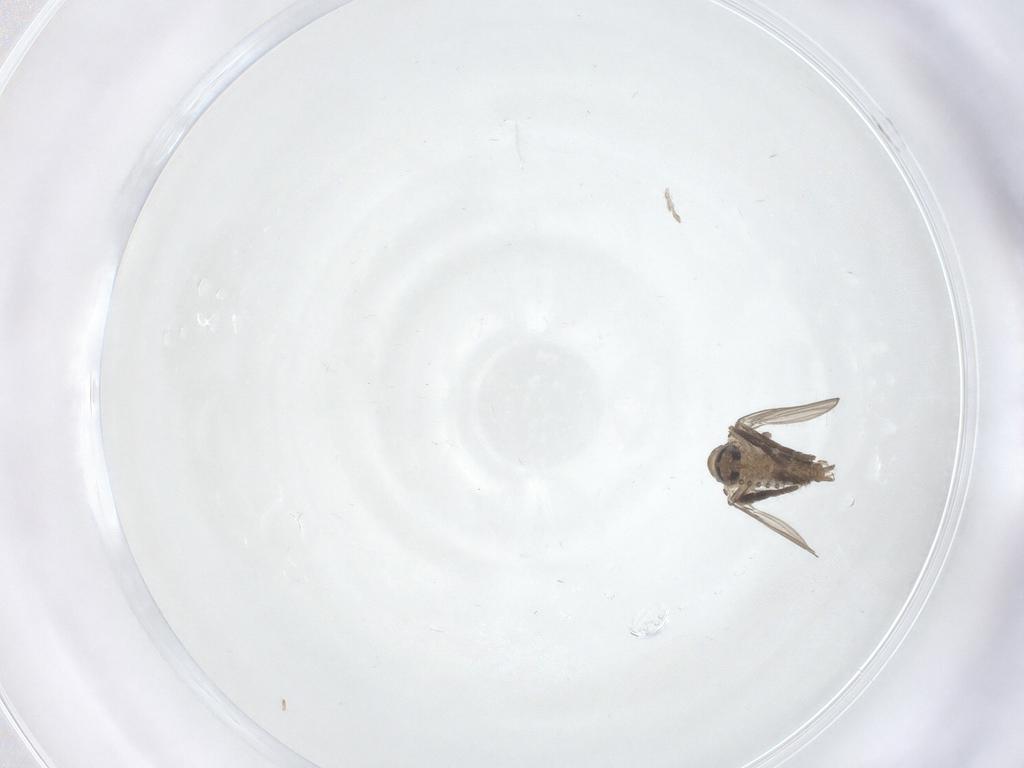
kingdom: Animalia
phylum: Arthropoda
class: Insecta
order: Diptera
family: Psychodidae
